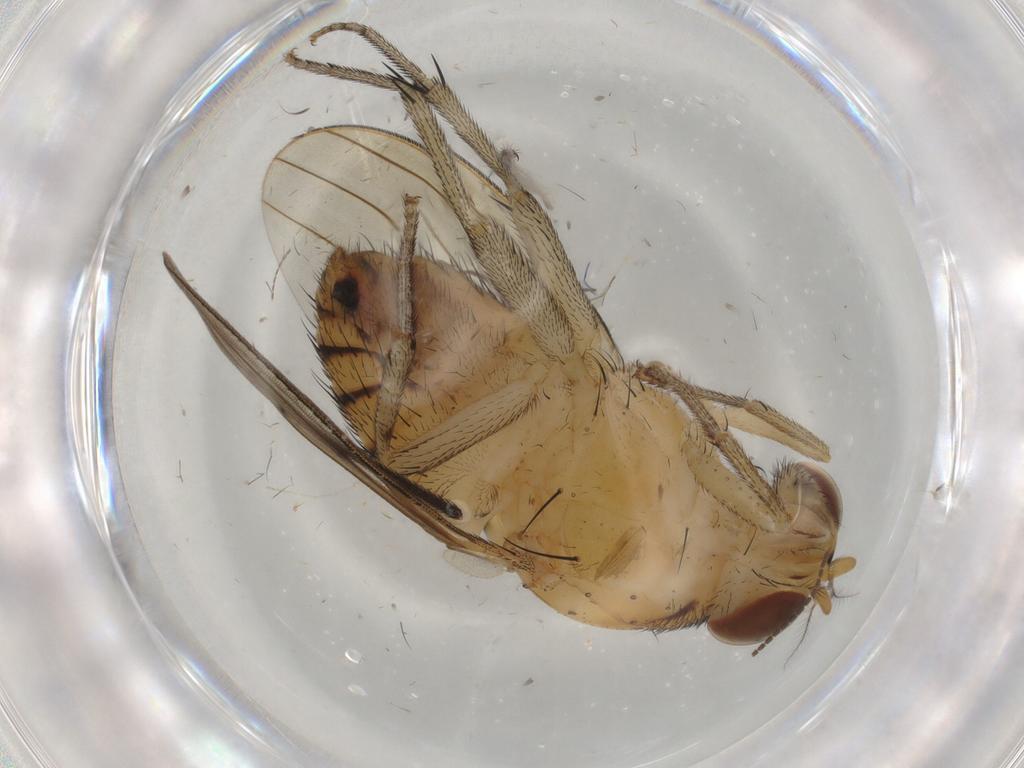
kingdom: Animalia
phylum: Arthropoda
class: Insecta
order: Diptera
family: Lauxaniidae
